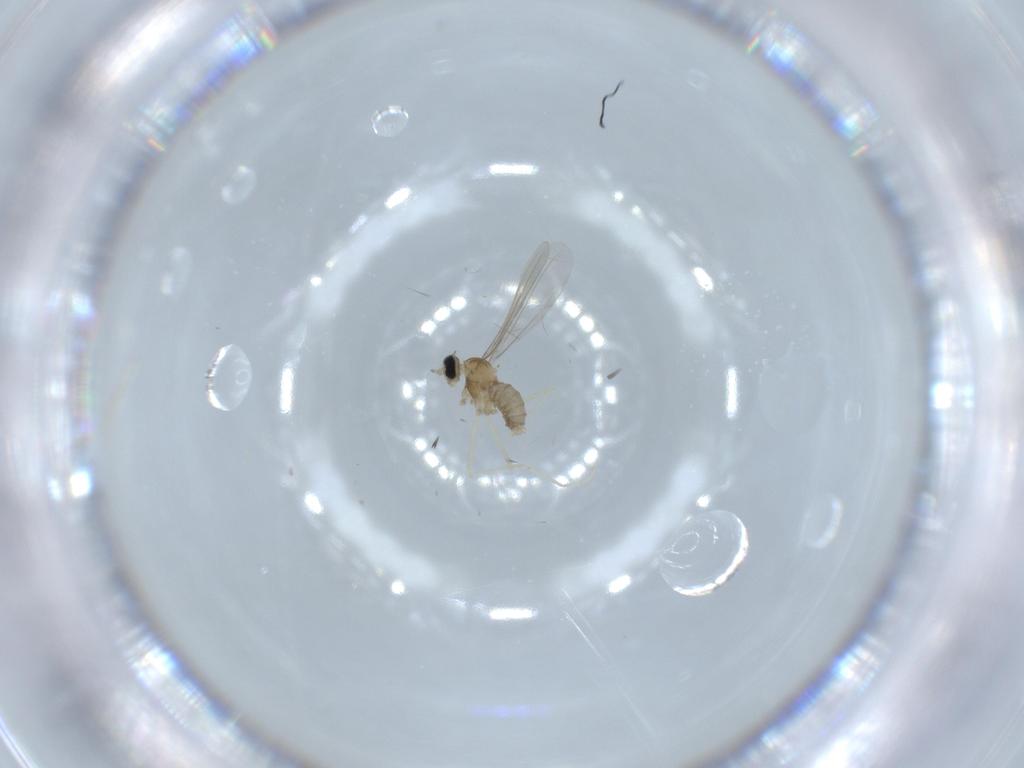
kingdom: Animalia
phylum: Arthropoda
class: Insecta
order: Diptera
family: Cecidomyiidae
